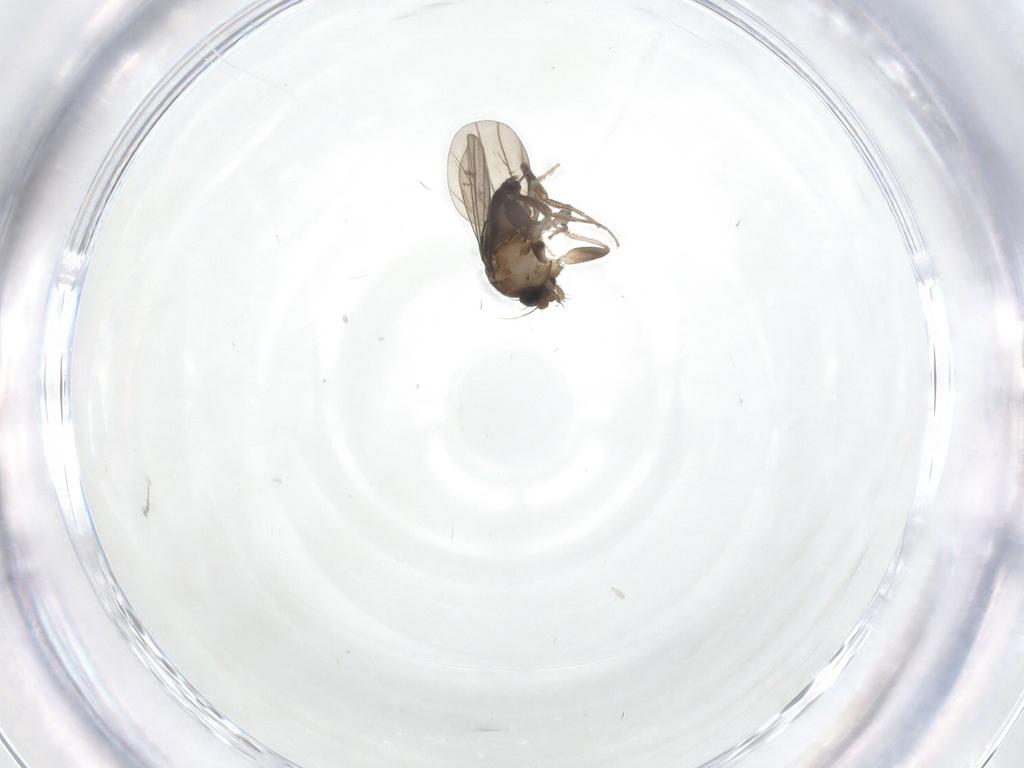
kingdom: Animalia
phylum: Arthropoda
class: Insecta
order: Diptera
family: Chironomidae
